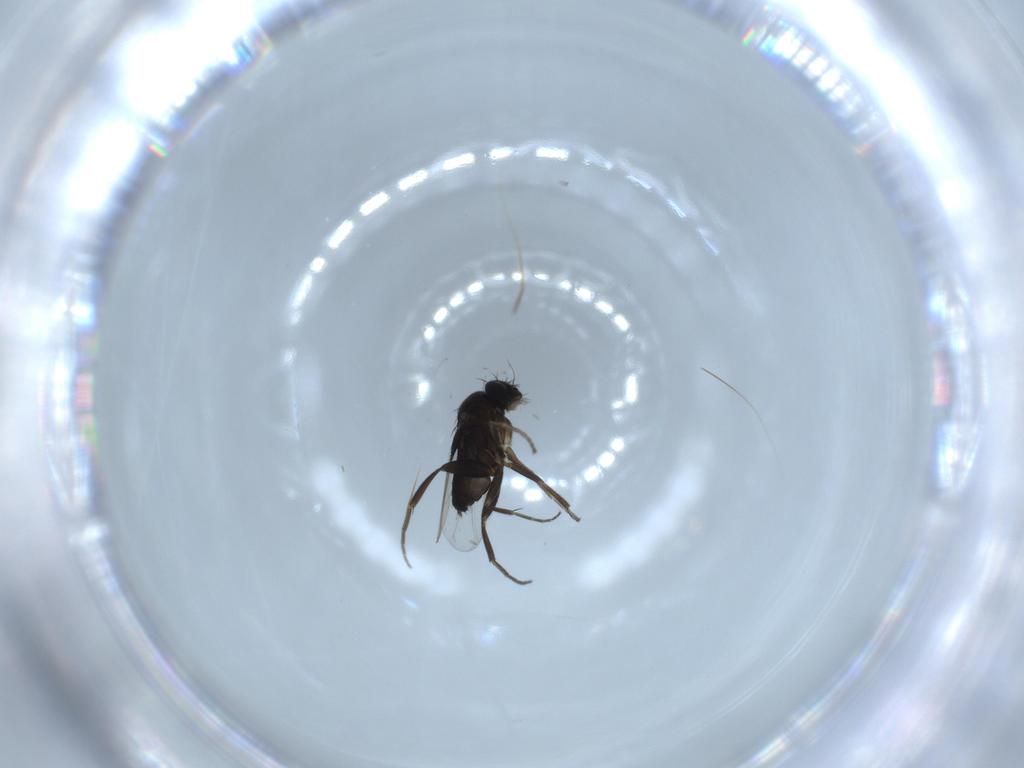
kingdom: Animalia
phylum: Arthropoda
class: Insecta
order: Diptera
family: Phoridae
